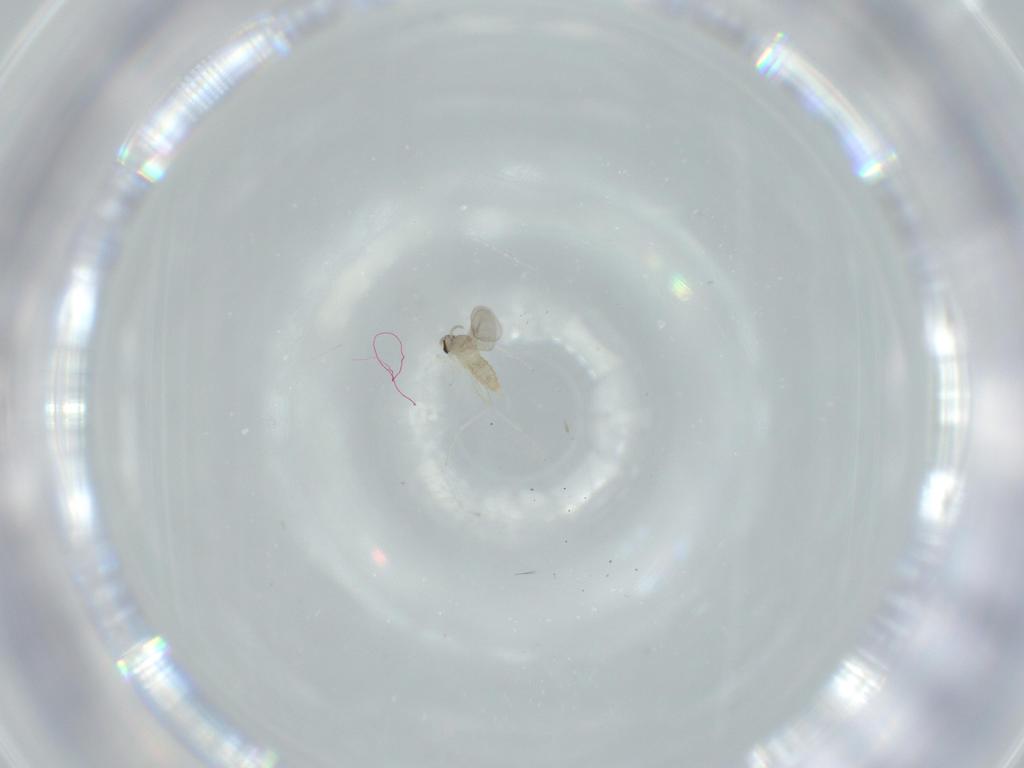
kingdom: Animalia
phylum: Arthropoda
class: Insecta
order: Diptera
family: Cecidomyiidae
